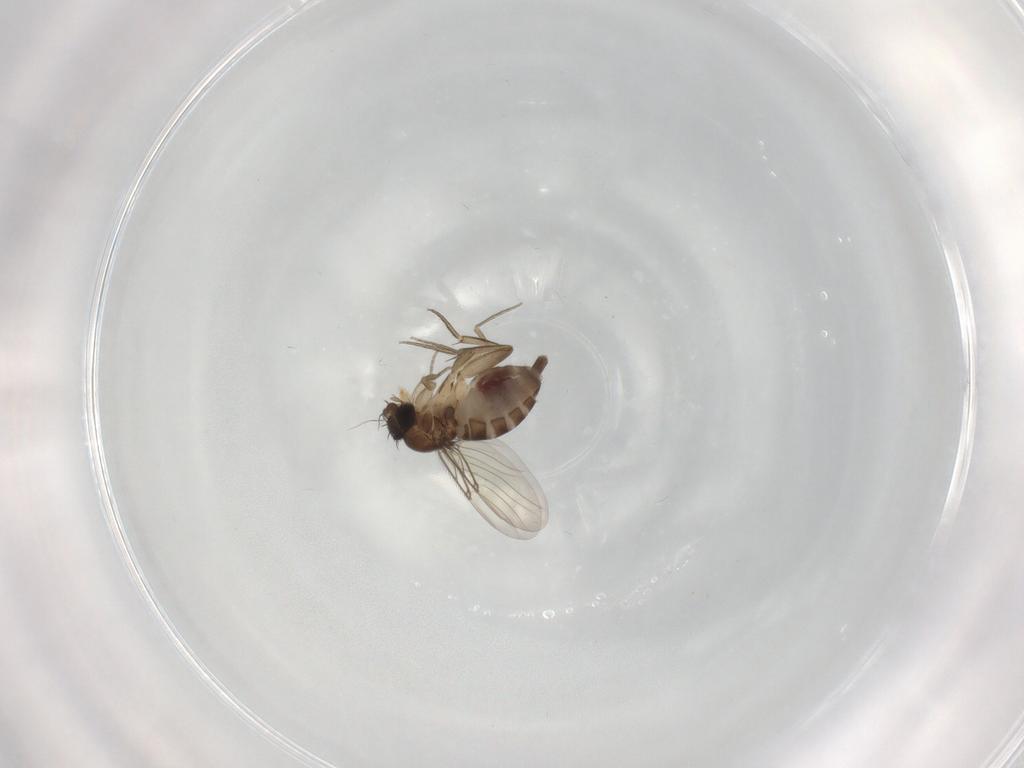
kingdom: Animalia
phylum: Arthropoda
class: Insecta
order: Diptera
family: Phoridae
